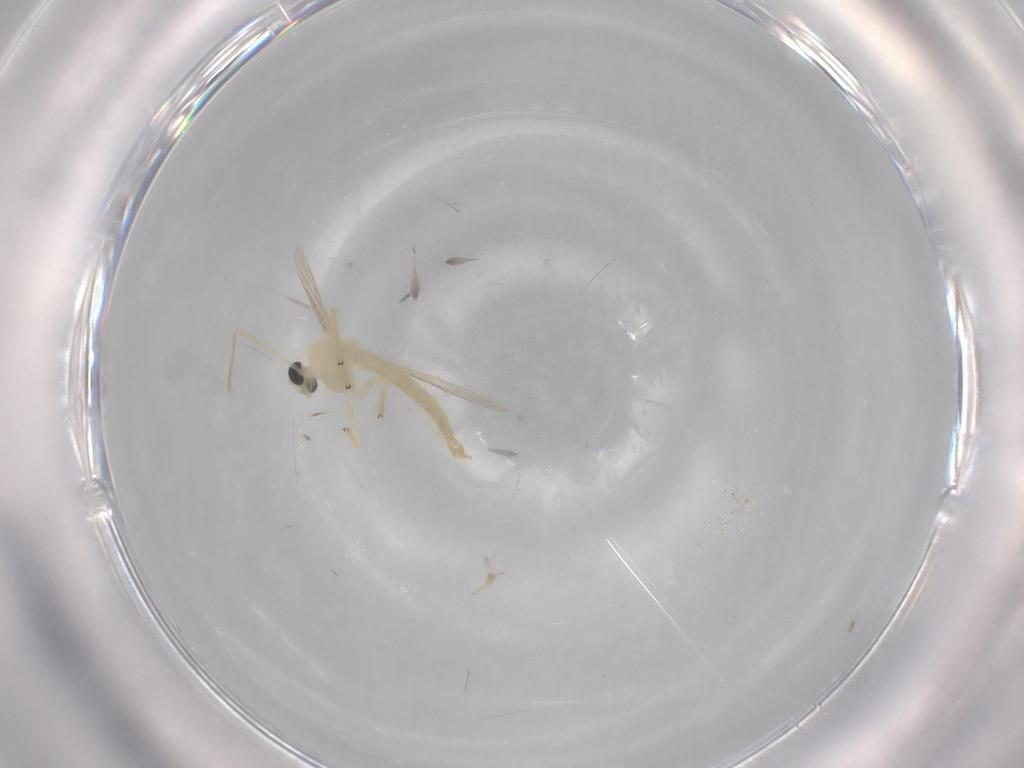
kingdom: Animalia
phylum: Arthropoda
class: Insecta
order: Diptera
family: Chironomidae
